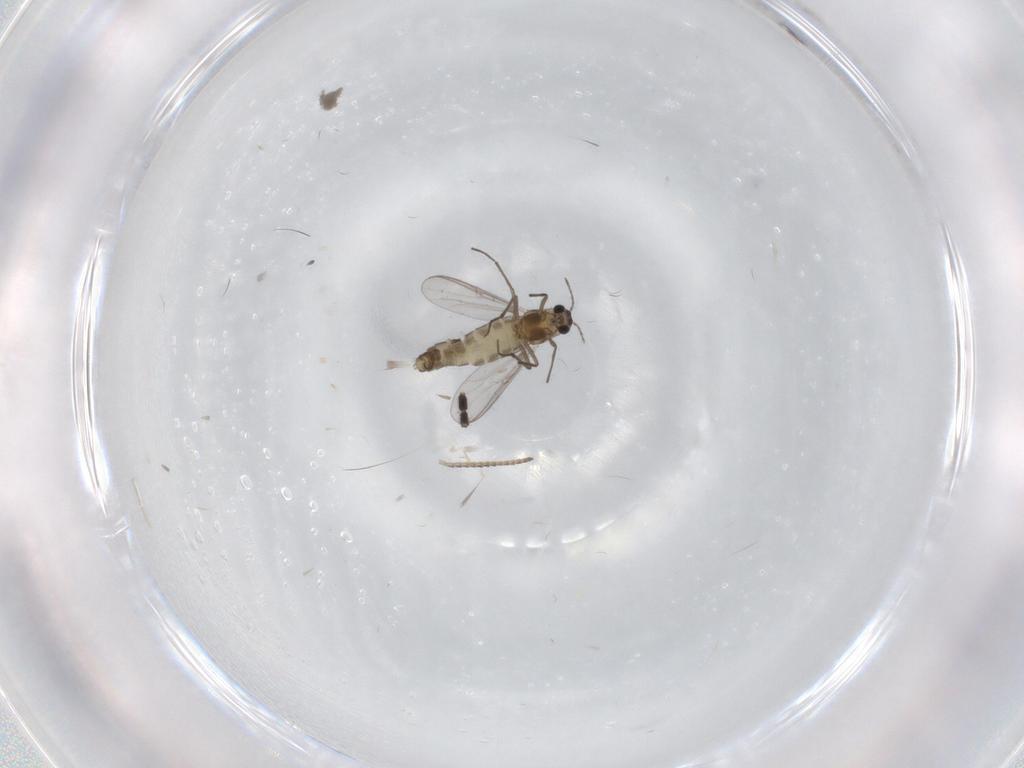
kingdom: Animalia
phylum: Arthropoda
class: Insecta
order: Diptera
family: Chironomidae
